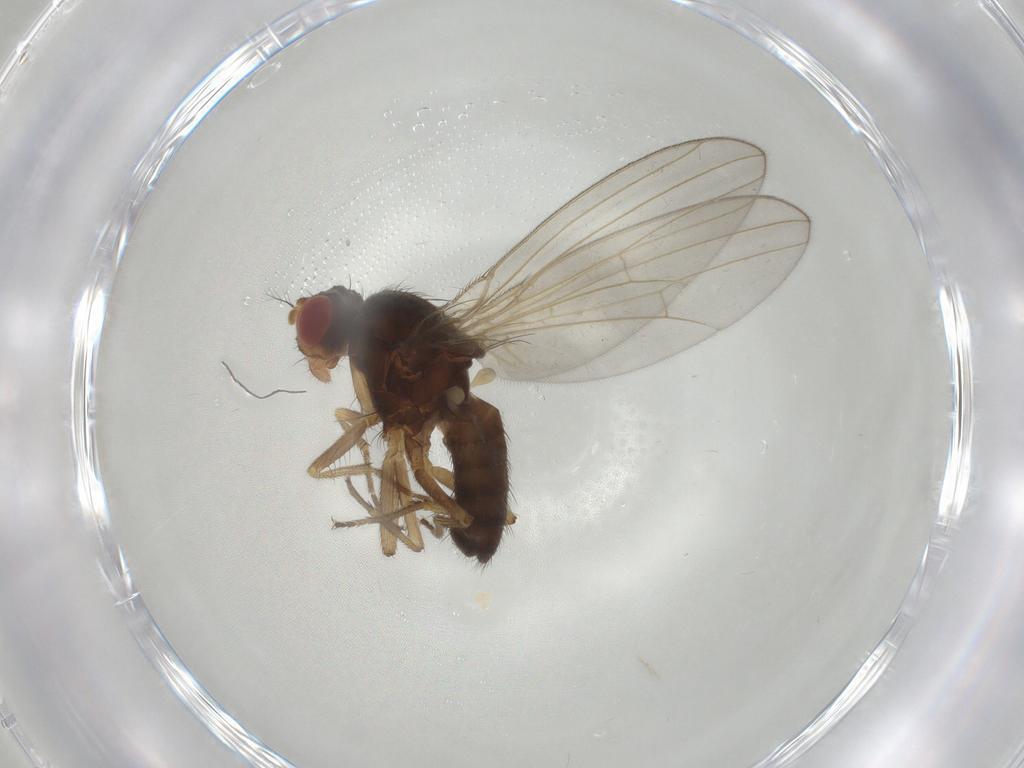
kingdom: Animalia
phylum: Arthropoda
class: Insecta
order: Diptera
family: Drosophilidae
